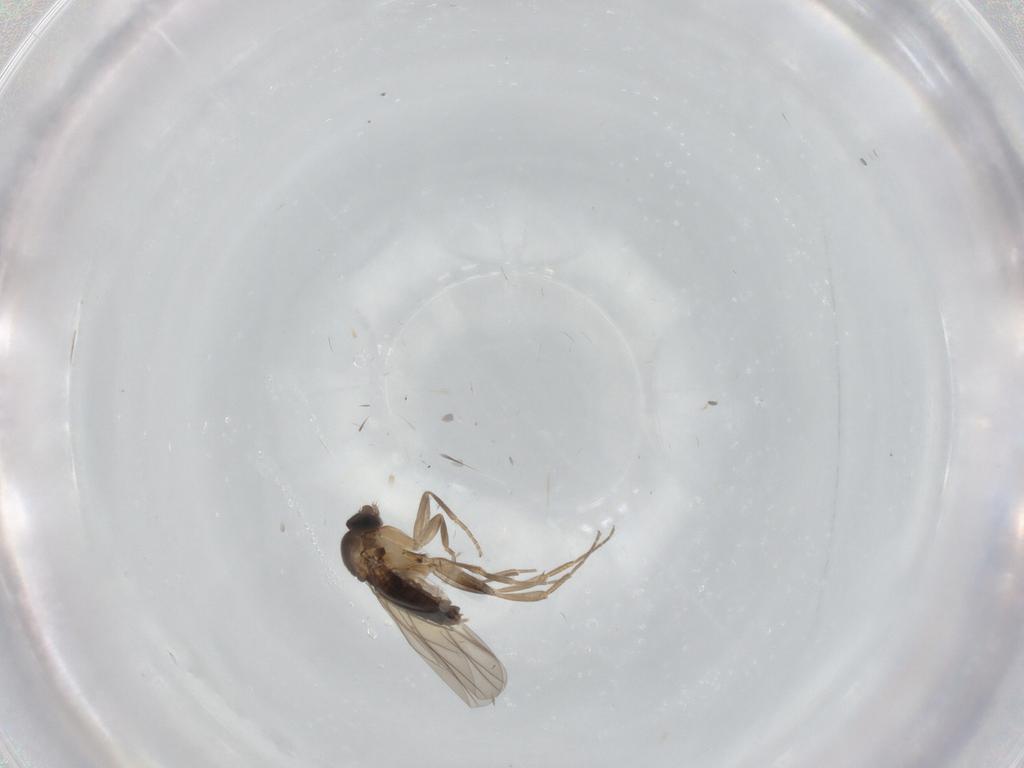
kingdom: Animalia
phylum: Arthropoda
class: Insecta
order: Diptera
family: Phoridae
